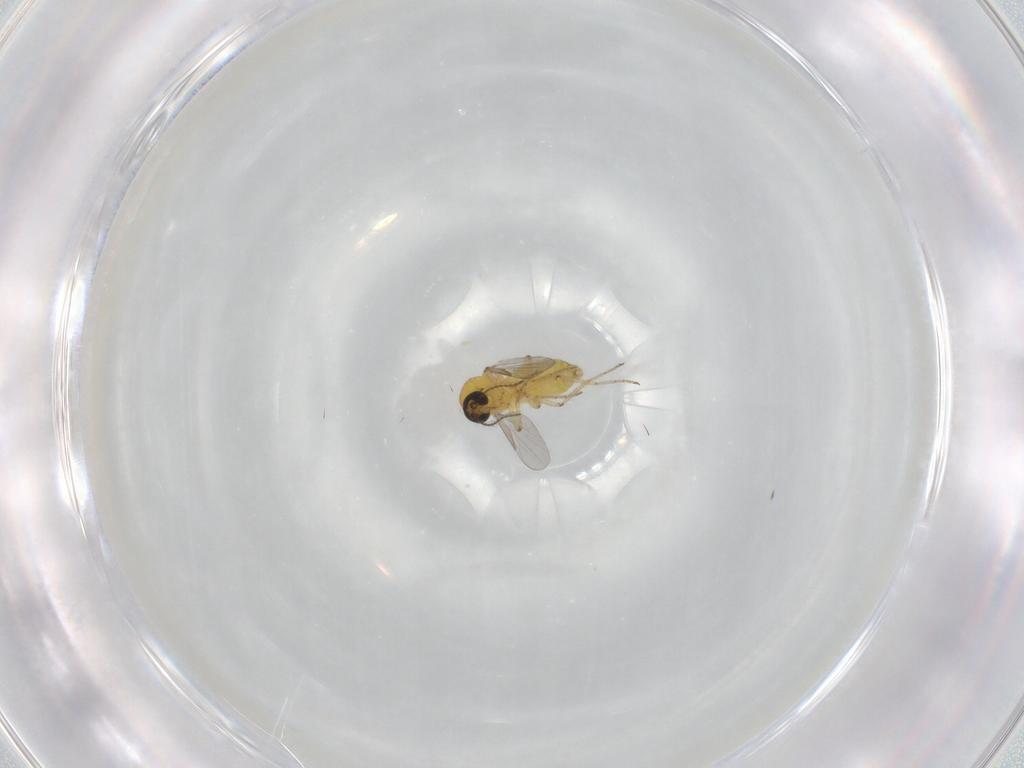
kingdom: Animalia
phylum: Arthropoda
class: Insecta
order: Diptera
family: Ceratopogonidae
